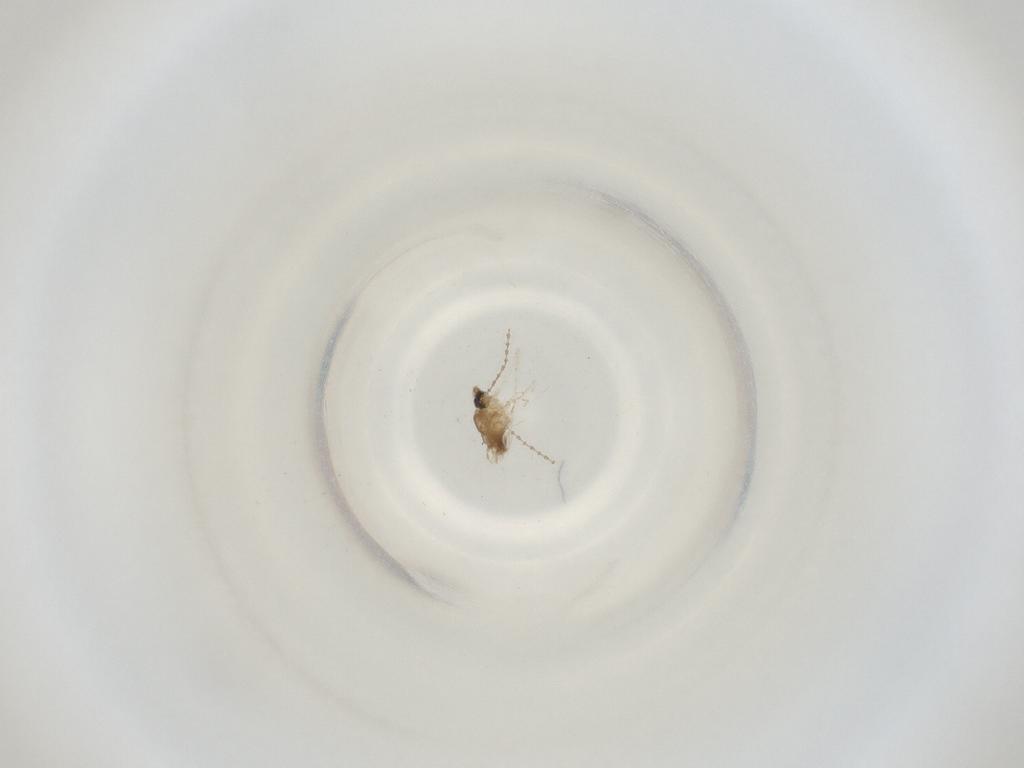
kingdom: Animalia
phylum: Arthropoda
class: Insecta
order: Diptera
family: Cecidomyiidae
